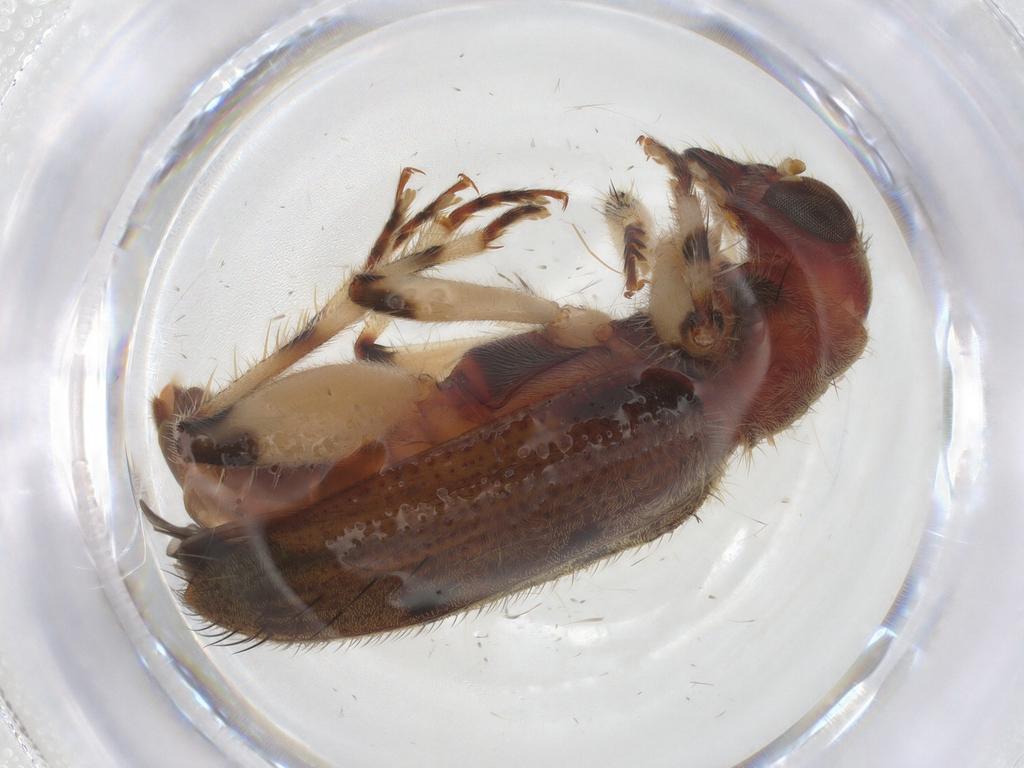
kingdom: Animalia
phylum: Arthropoda
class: Insecta
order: Coleoptera
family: Cleridae
